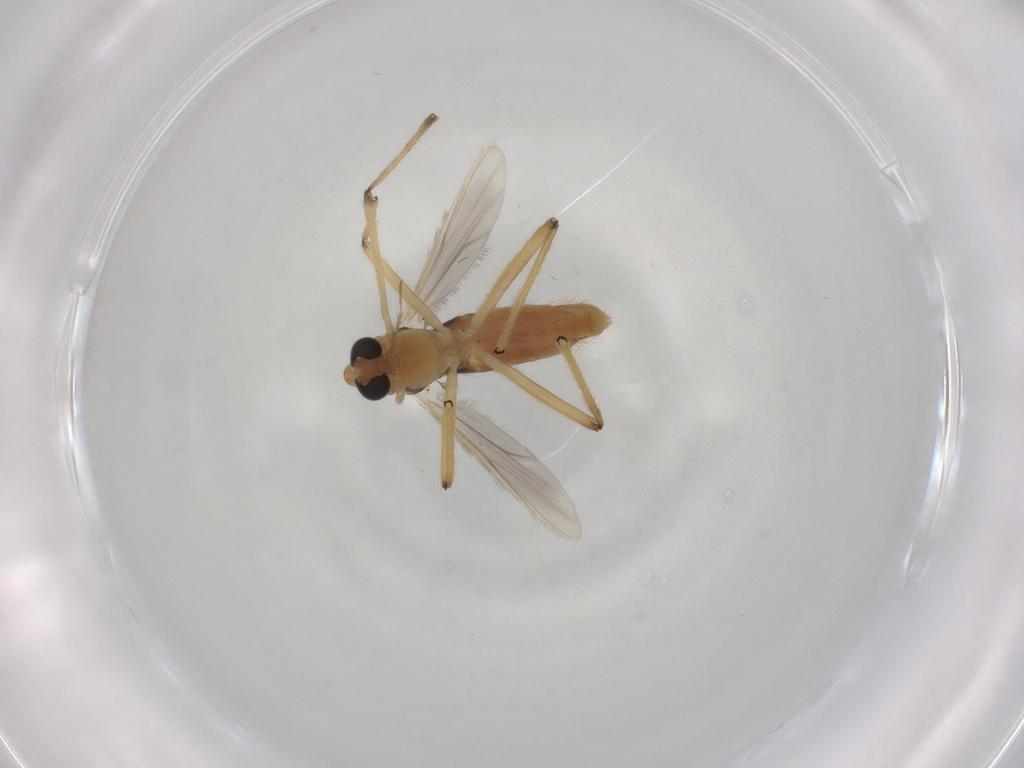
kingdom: Animalia
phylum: Arthropoda
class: Insecta
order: Diptera
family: Chironomidae
